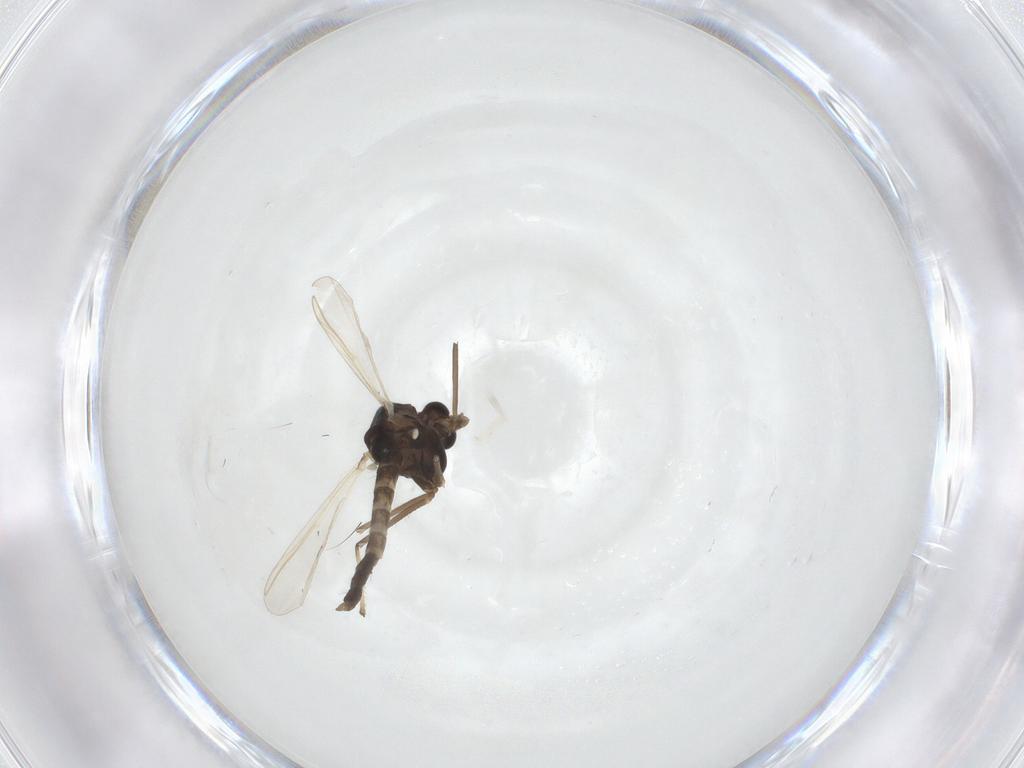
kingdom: Animalia
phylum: Arthropoda
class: Insecta
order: Diptera
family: Chironomidae
